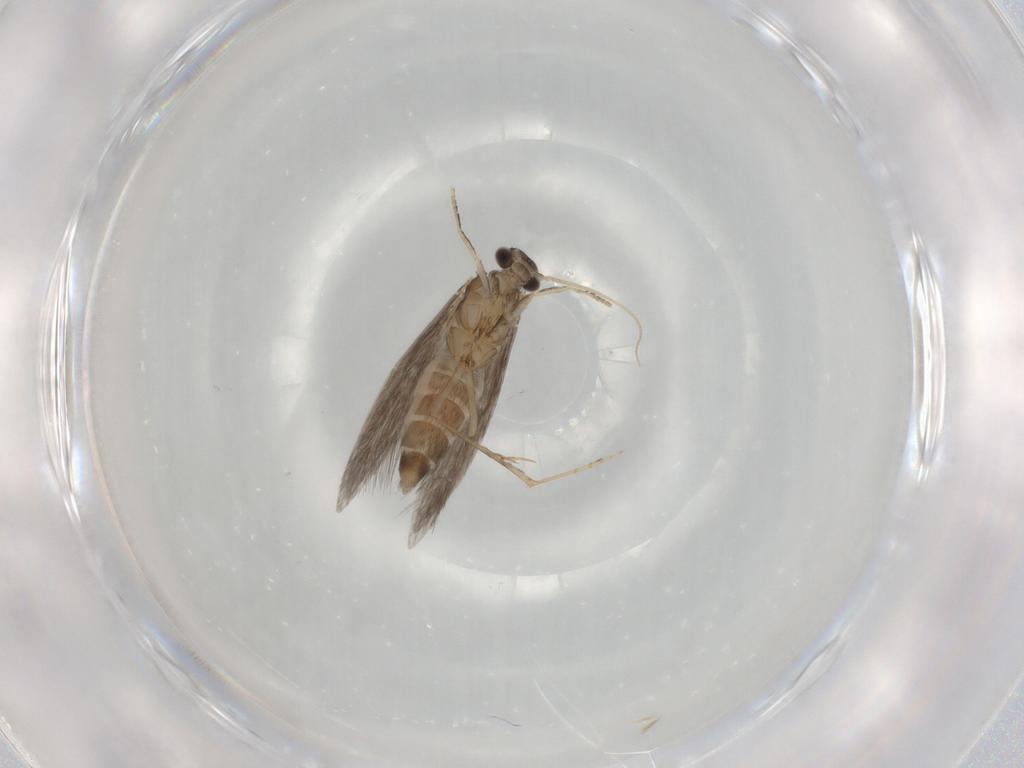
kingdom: Animalia
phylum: Arthropoda
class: Insecta
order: Trichoptera
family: Hydroptilidae
